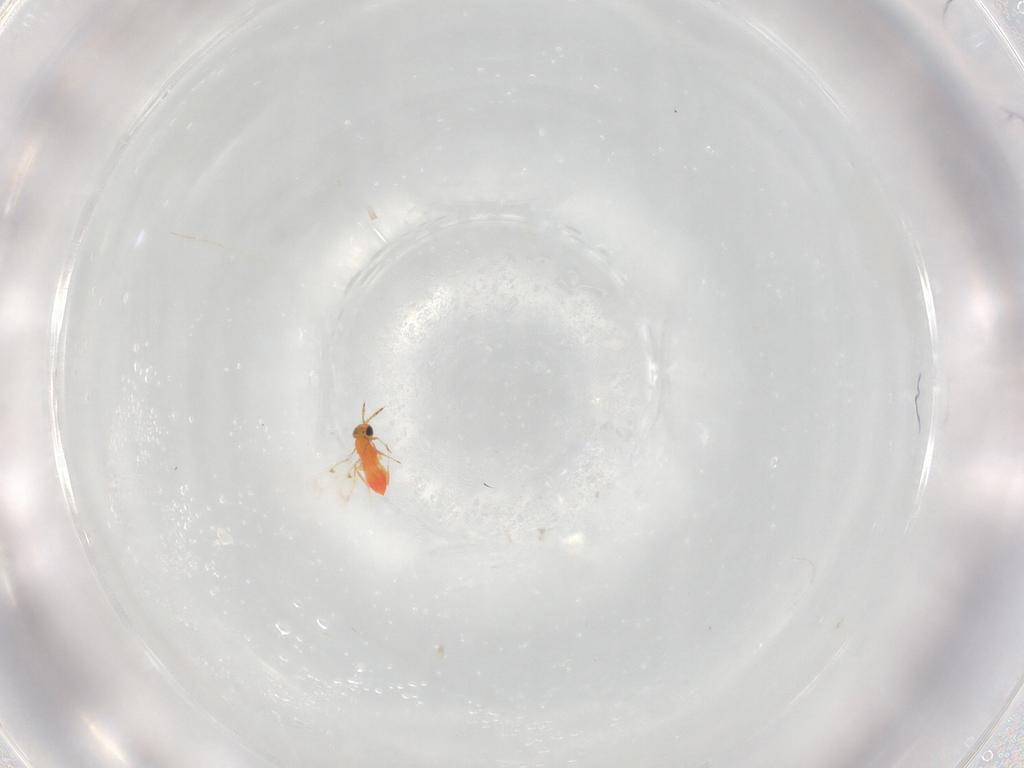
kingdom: Animalia
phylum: Arthropoda
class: Insecta
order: Hymenoptera
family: Trichogrammatidae
